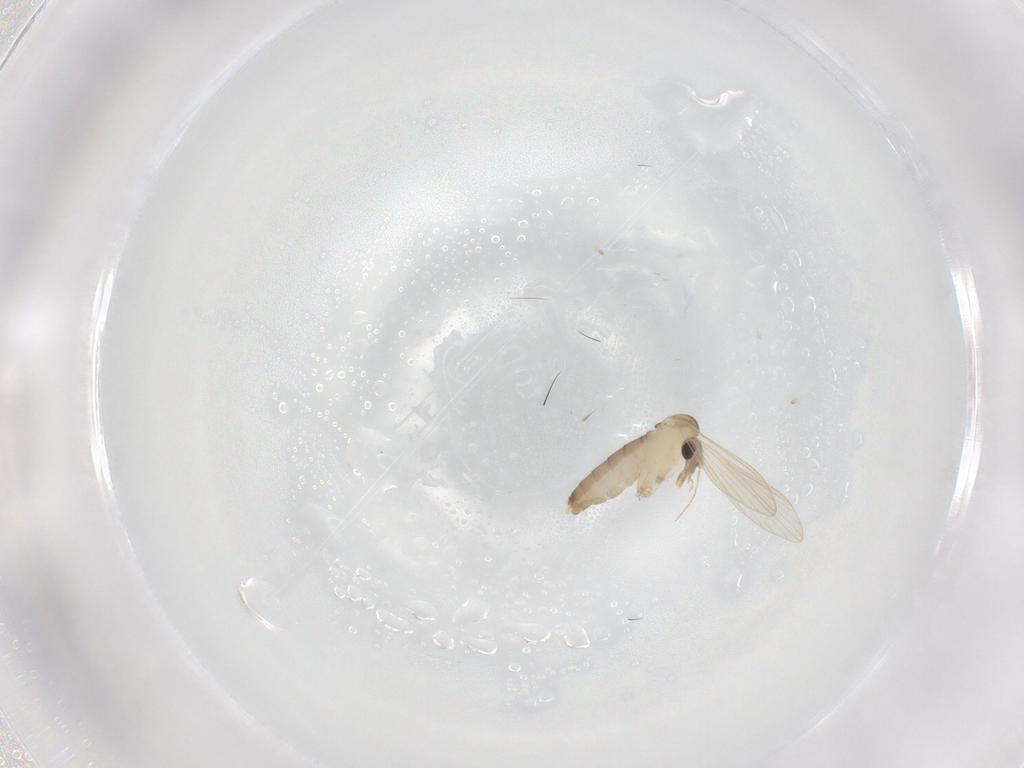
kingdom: Animalia
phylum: Arthropoda
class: Insecta
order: Diptera
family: Psychodidae
